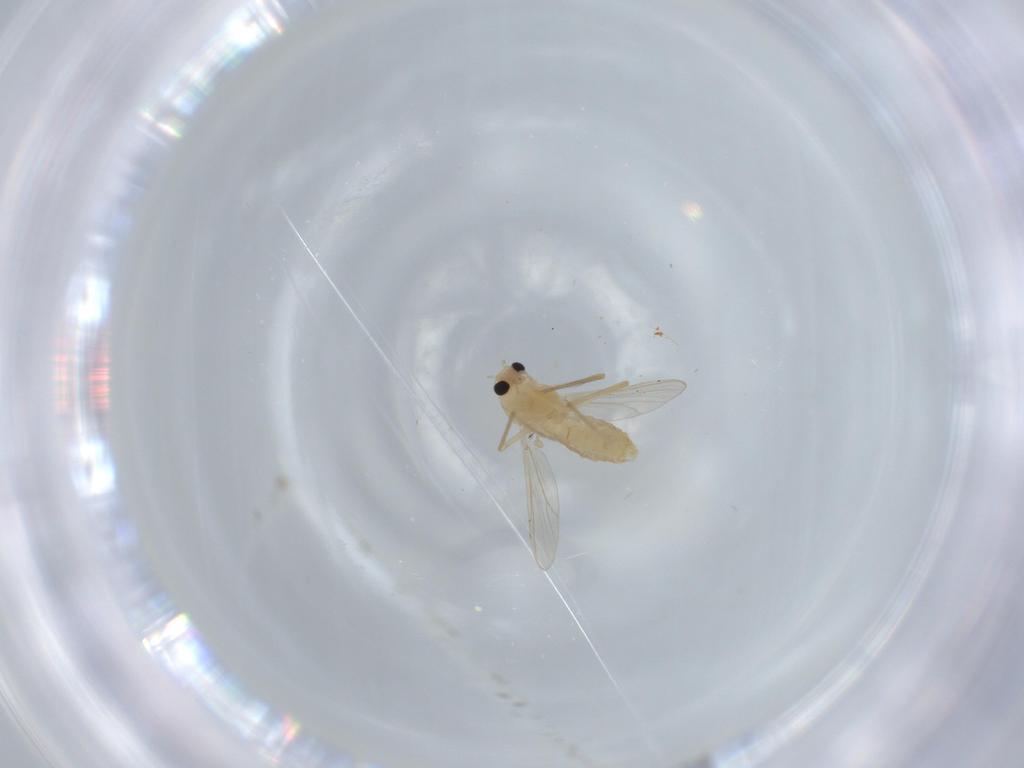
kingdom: Animalia
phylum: Arthropoda
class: Insecta
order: Diptera
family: Chironomidae
